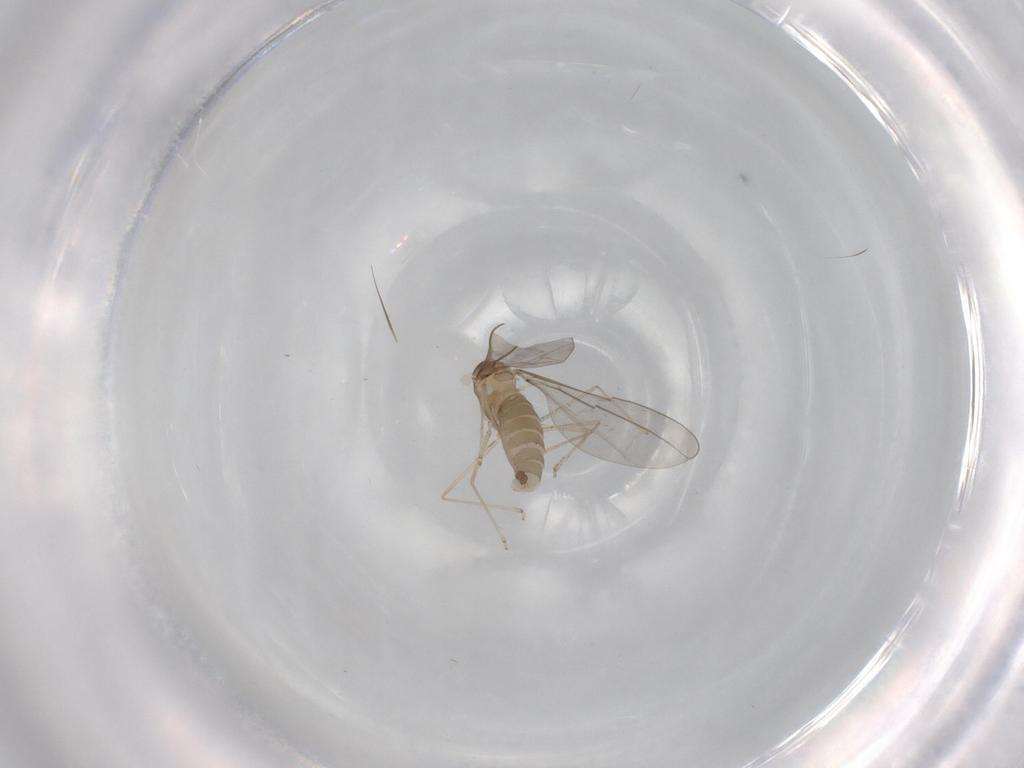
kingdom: Animalia
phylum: Arthropoda
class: Insecta
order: Diptera
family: Cecidomyiidae
